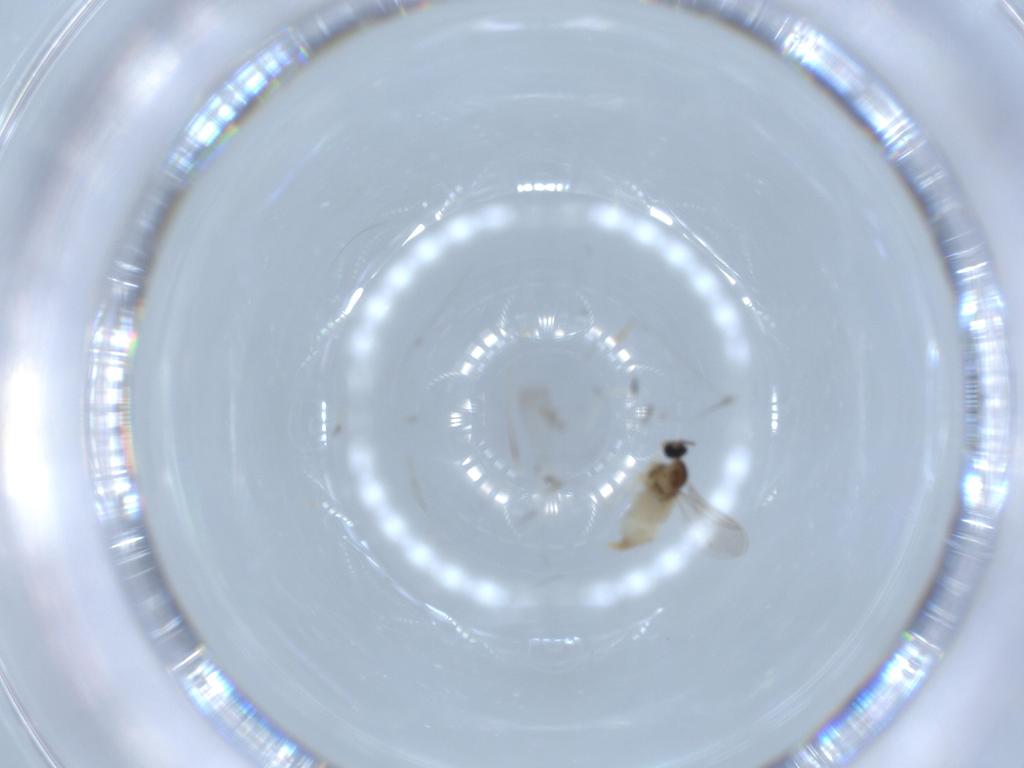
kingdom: Animalia
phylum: Arthropoda
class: Insecta
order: Diptera
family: Cecidomyiidae
